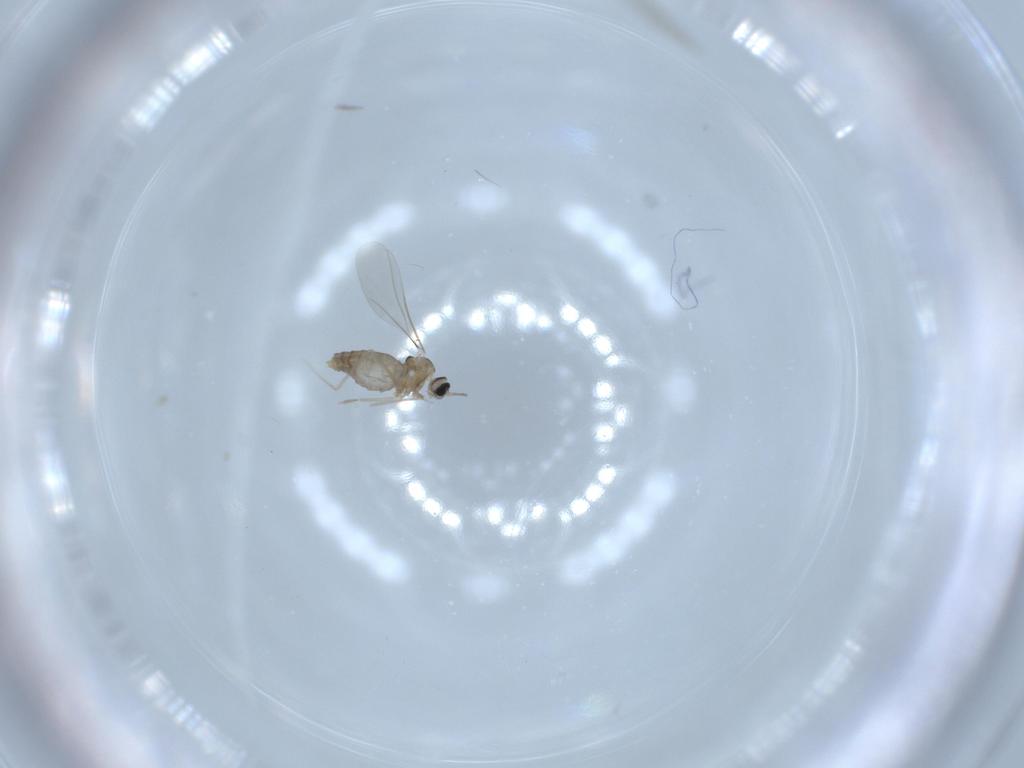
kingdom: Animalia
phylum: Arthropoda
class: Insecta
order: Diptera
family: Cecidomyiidae
